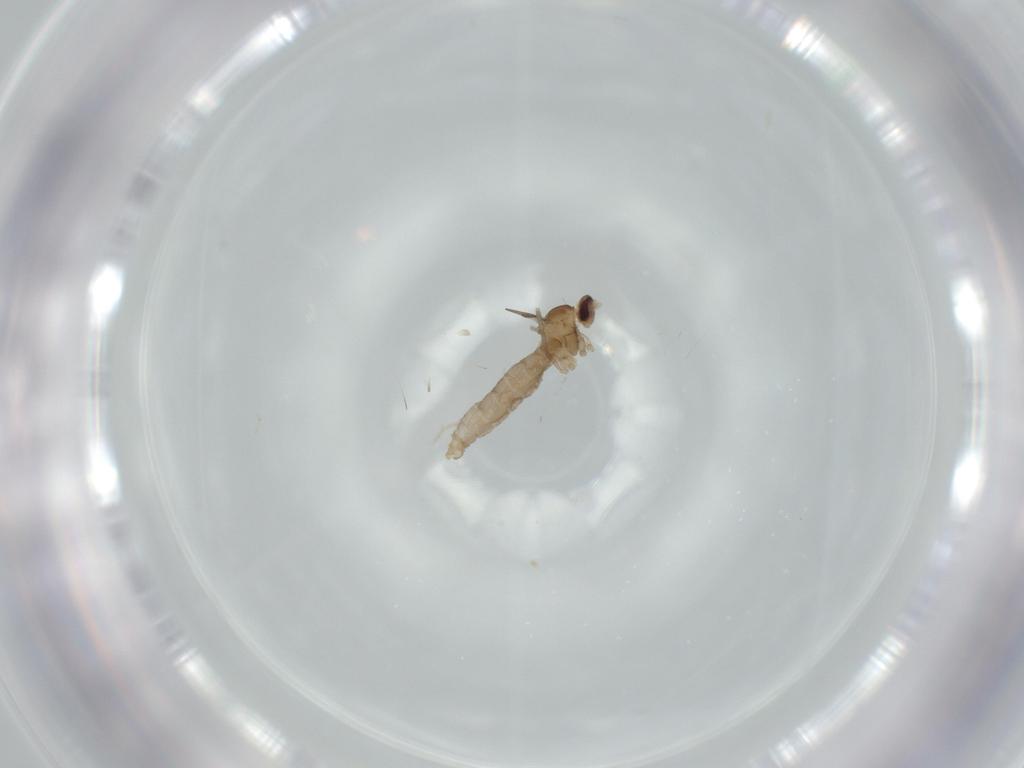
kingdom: Animalia
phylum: Arthropoda
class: Insecta
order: Diptera
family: Cecidomyiidae
